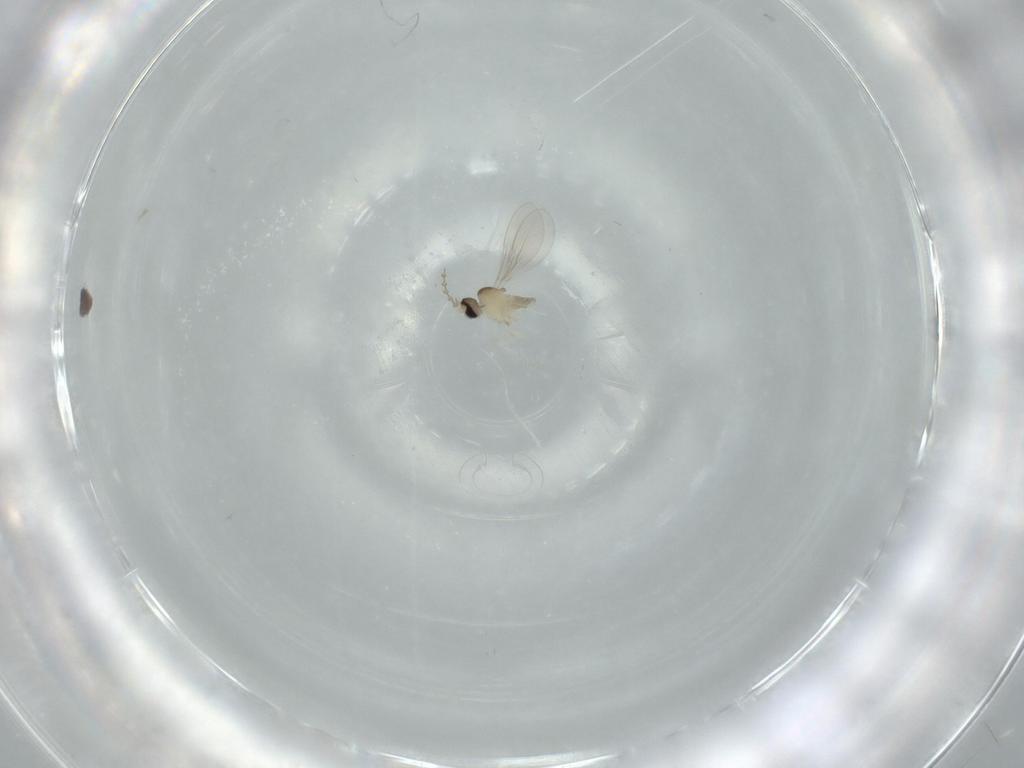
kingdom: Animalia
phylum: Arthropoda
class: Insecta
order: Diptera
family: Cecidomyiidae
